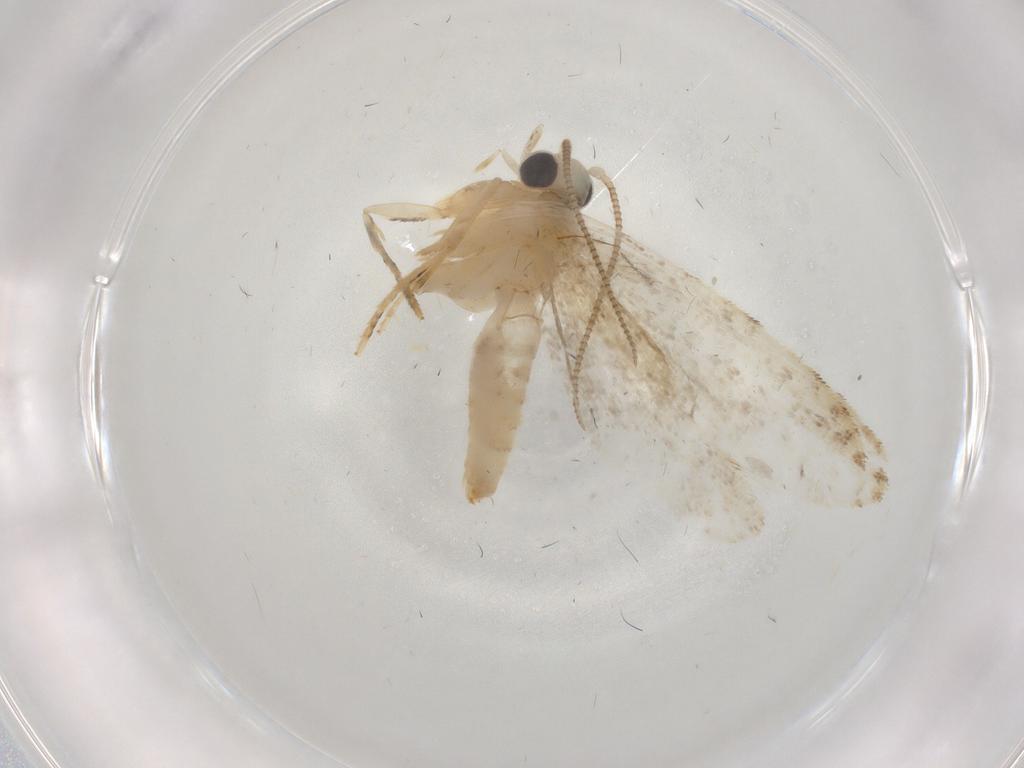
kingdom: Animalia
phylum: Arthropoda
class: Insecta
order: Lepidoptera
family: Tineidae
